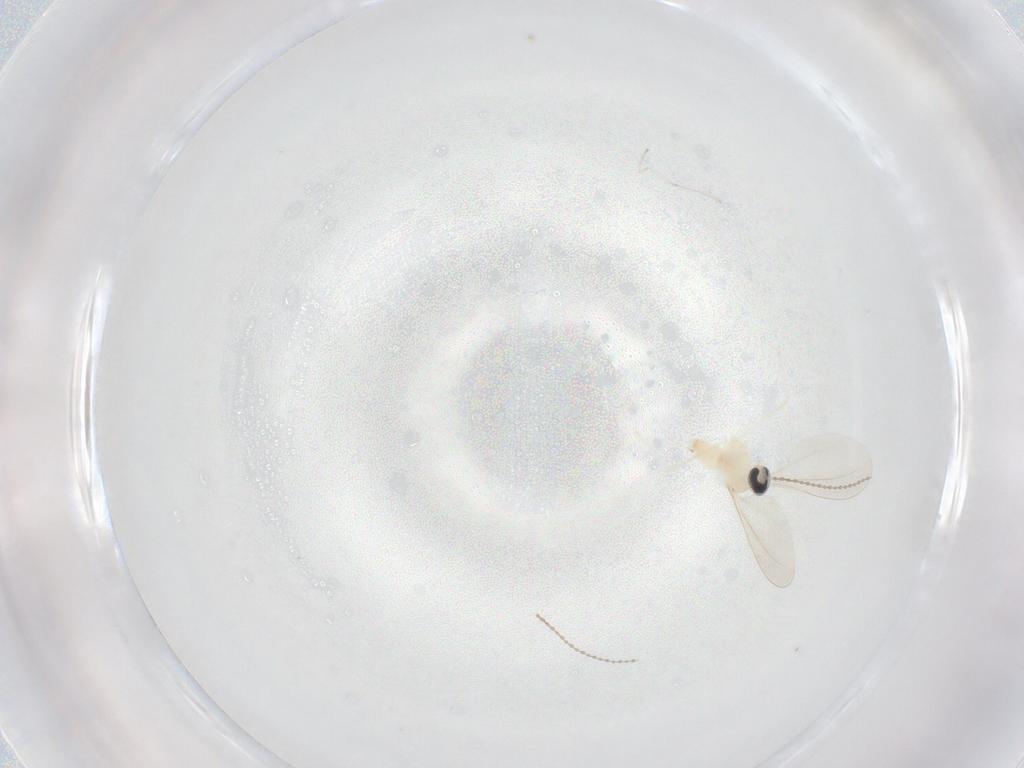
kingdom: Animalia
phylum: Arthropoda
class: Insecta
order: Diptera
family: Cecidomyiidae
